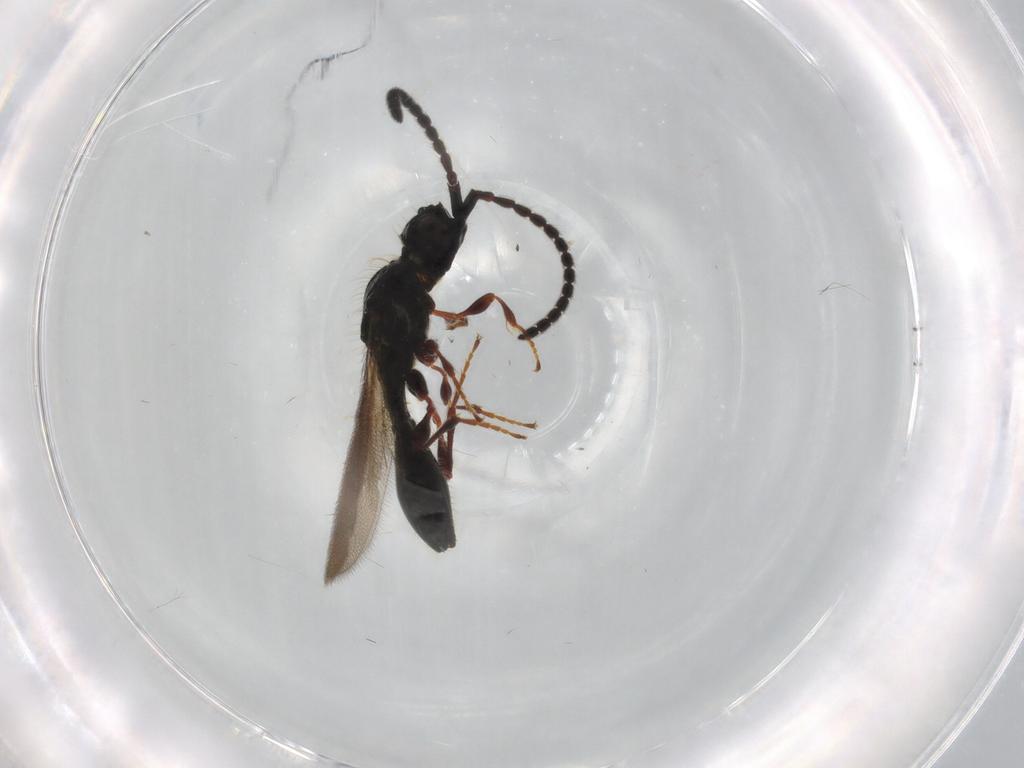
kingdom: Animalia
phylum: Arthropoda
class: Insecta
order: Hymenoptera
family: Diapriidae
